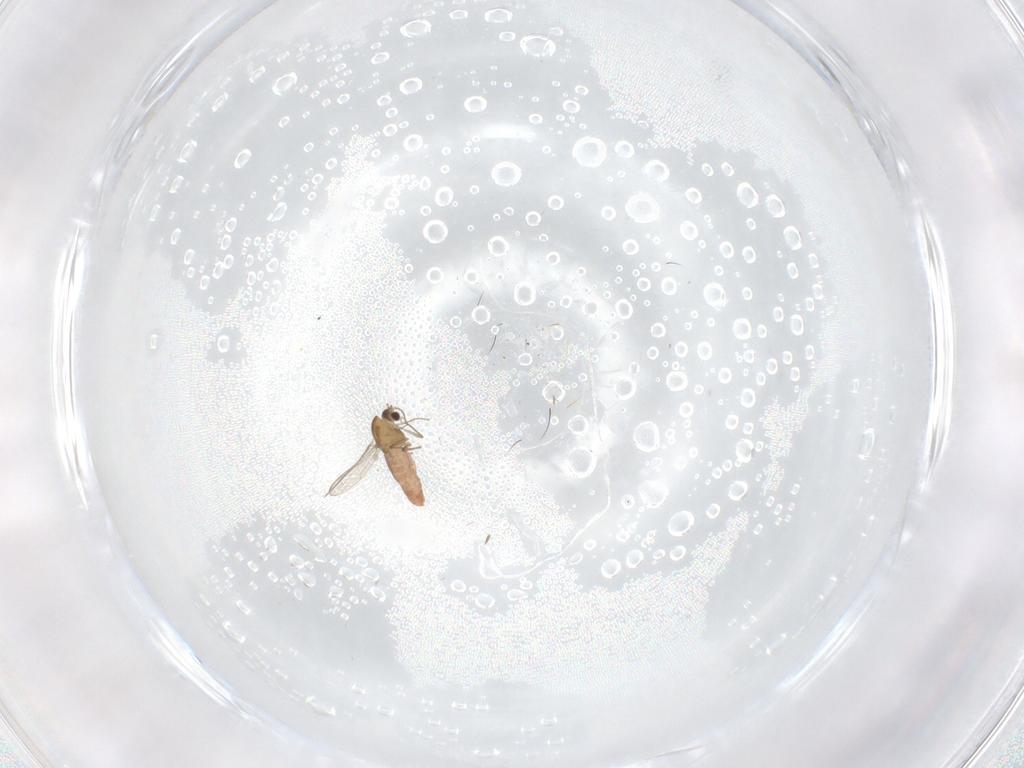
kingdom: Animalia
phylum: Arthropoda
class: Insecta
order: Diptera
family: Chironomidae
